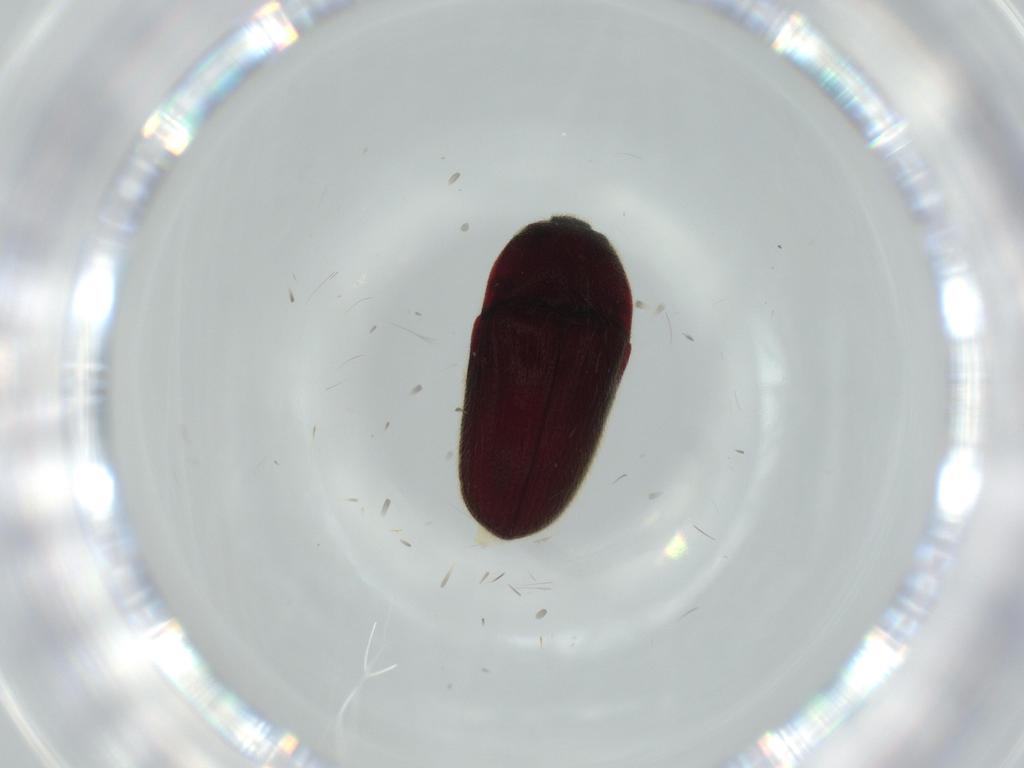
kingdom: Animalia
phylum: Arthropoda
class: Insecta
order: Coleoptera
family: Throscidae
